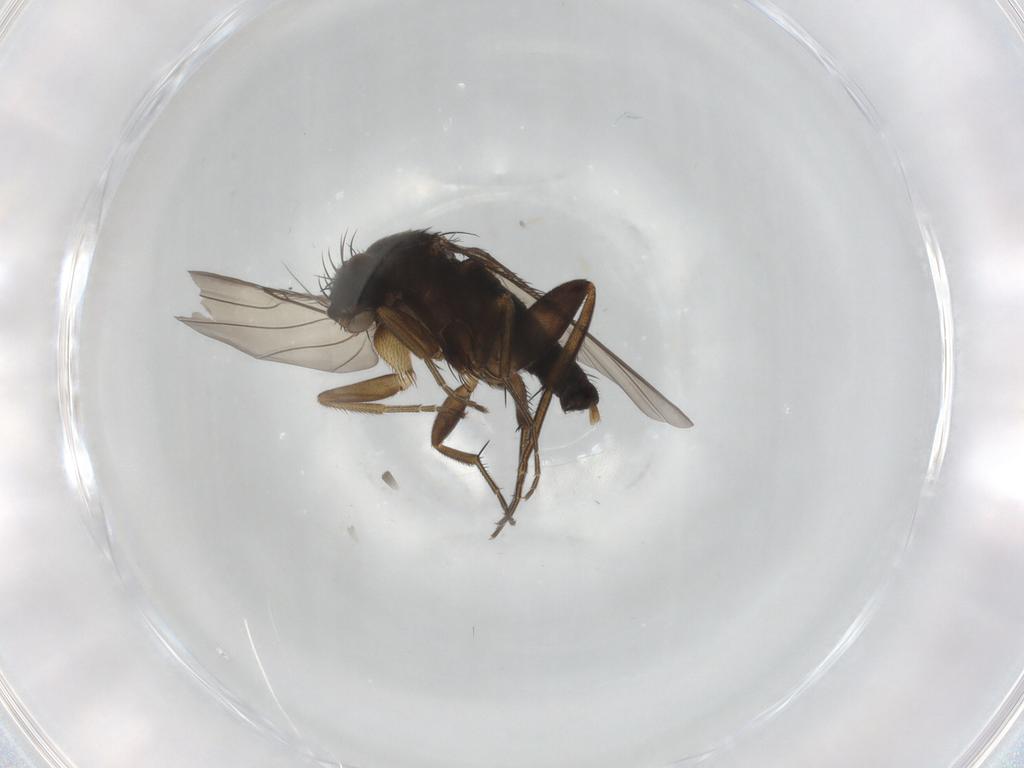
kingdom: Animalia
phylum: Arthropoda
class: Insecta
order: Diptera
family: Phoridae
